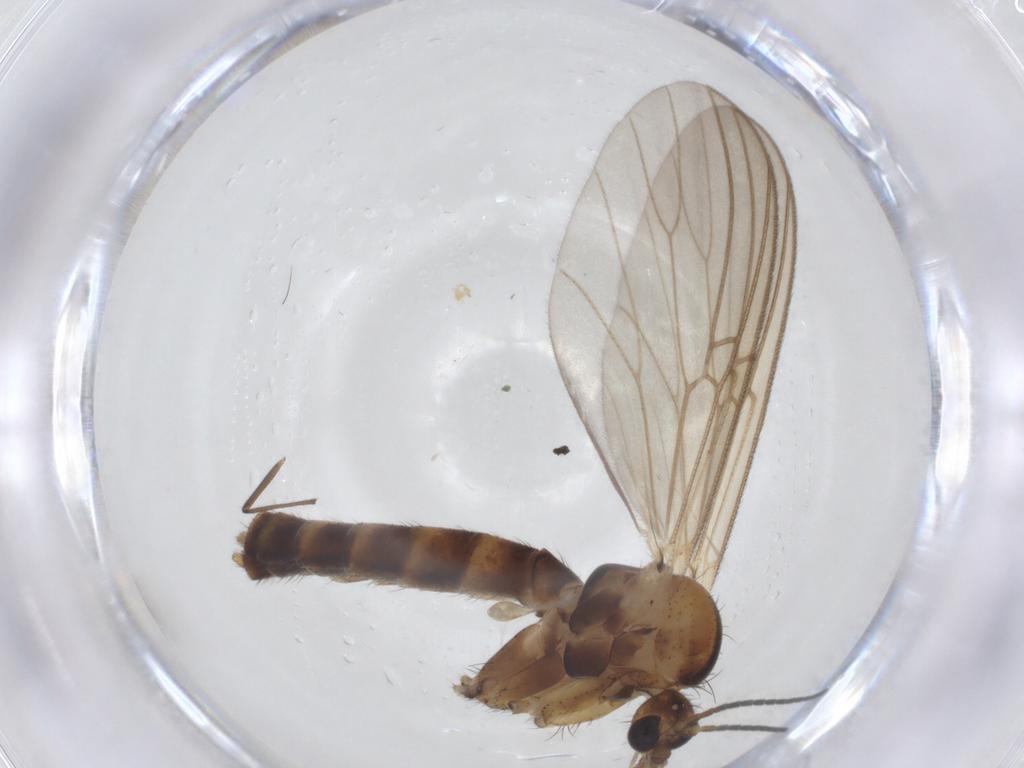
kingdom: Animalia
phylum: Arthropoda
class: Insecta
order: Diptera
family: Mycetophilidae
